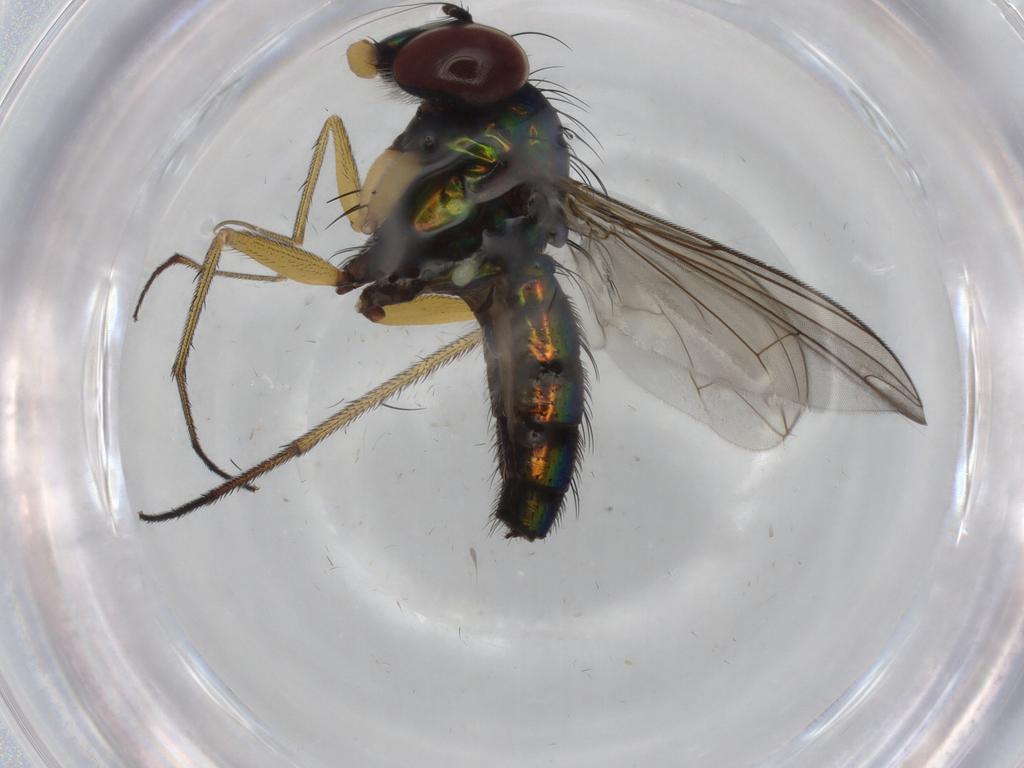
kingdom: Animalia
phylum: Arthropoda
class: Insecta
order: Diptera
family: Dolichopodidae
